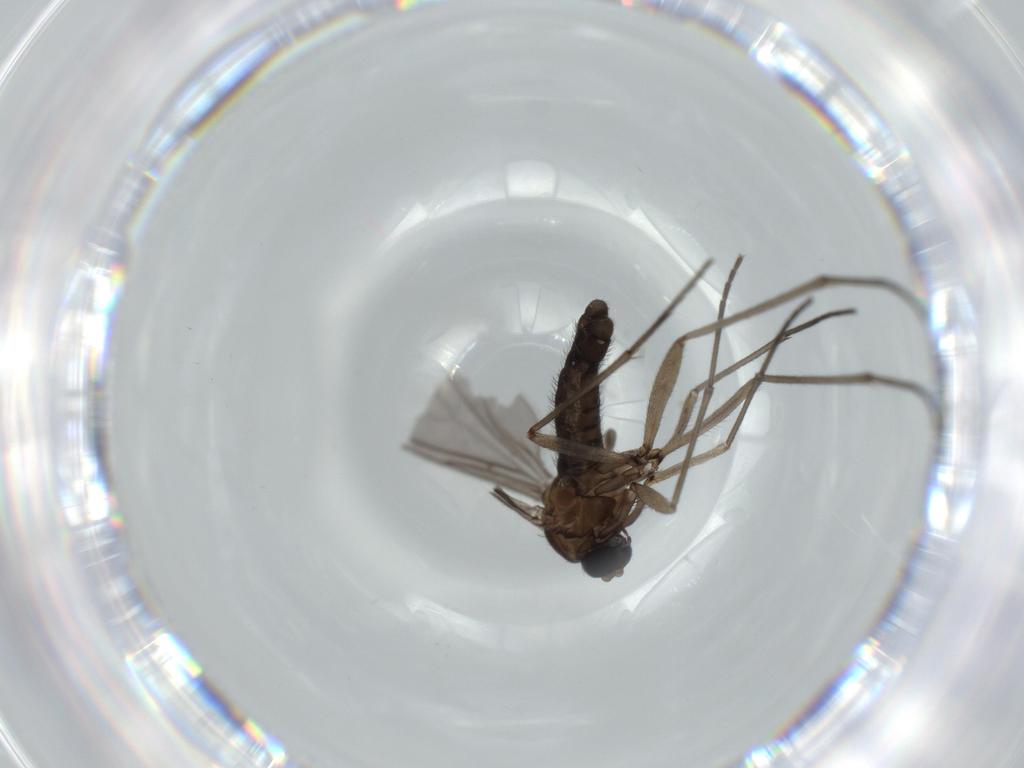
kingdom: Animalia
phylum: Arthropoda
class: Insecta
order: Diptera
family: Sciaridae
